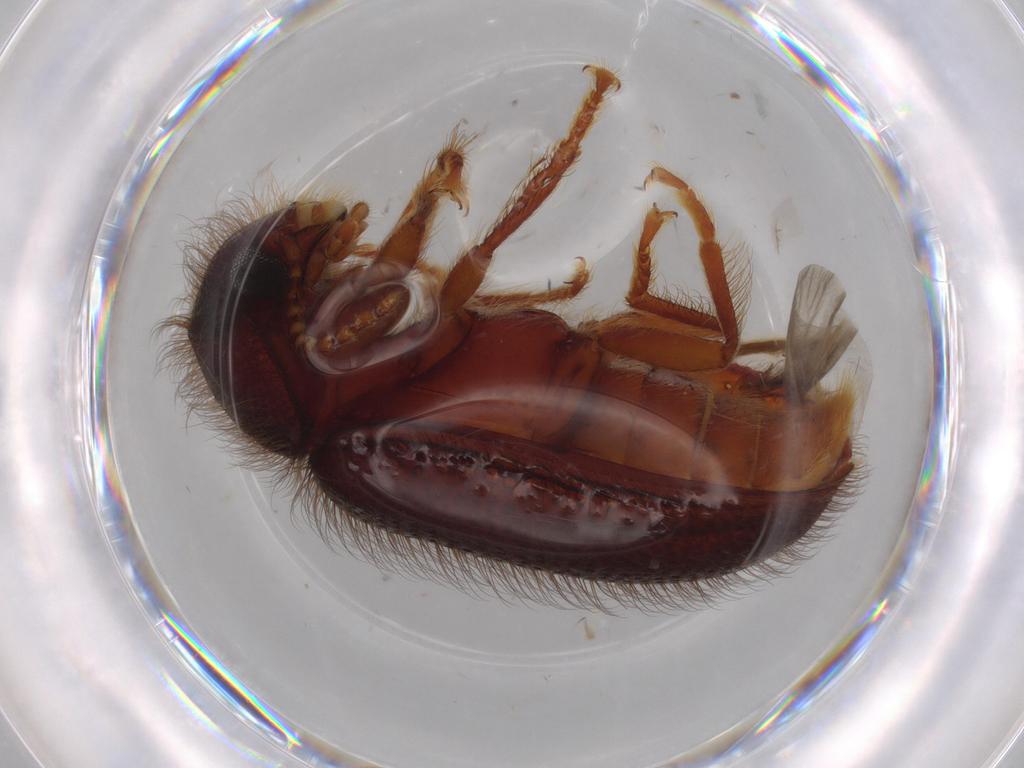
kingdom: Animalia
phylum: Arthropoda
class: Insecta
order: Coleoptera
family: Rhadalidae
